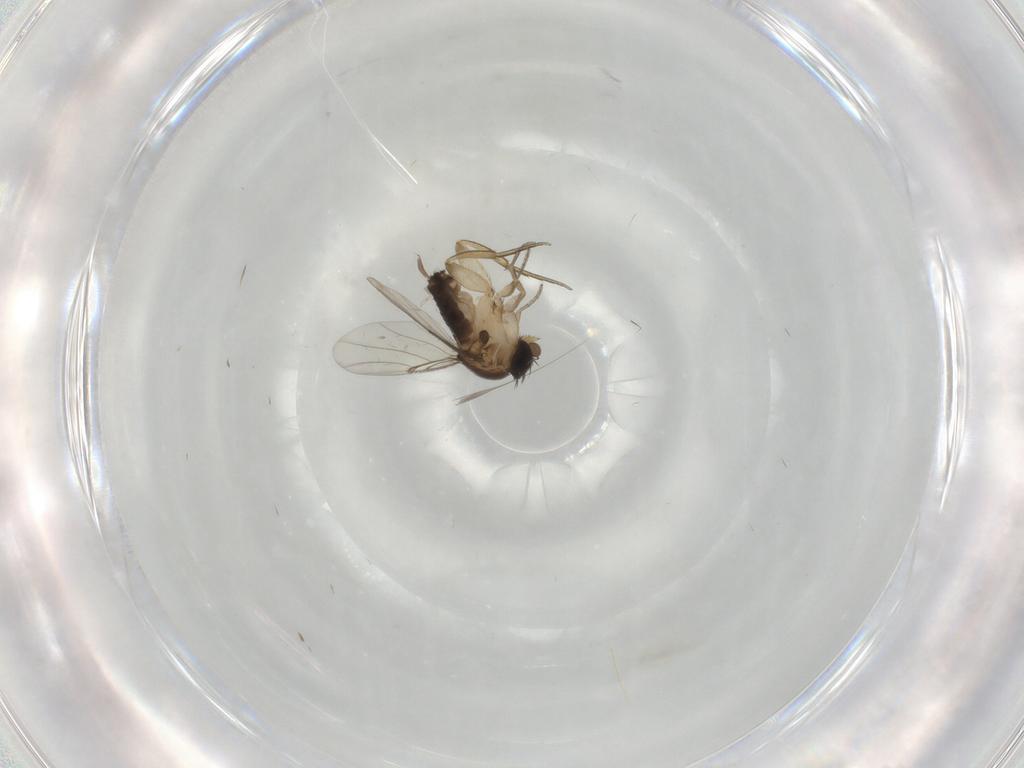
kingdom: Animalia
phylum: Arthropoda
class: Insecta
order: Diptera
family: Cecidomyiidae
